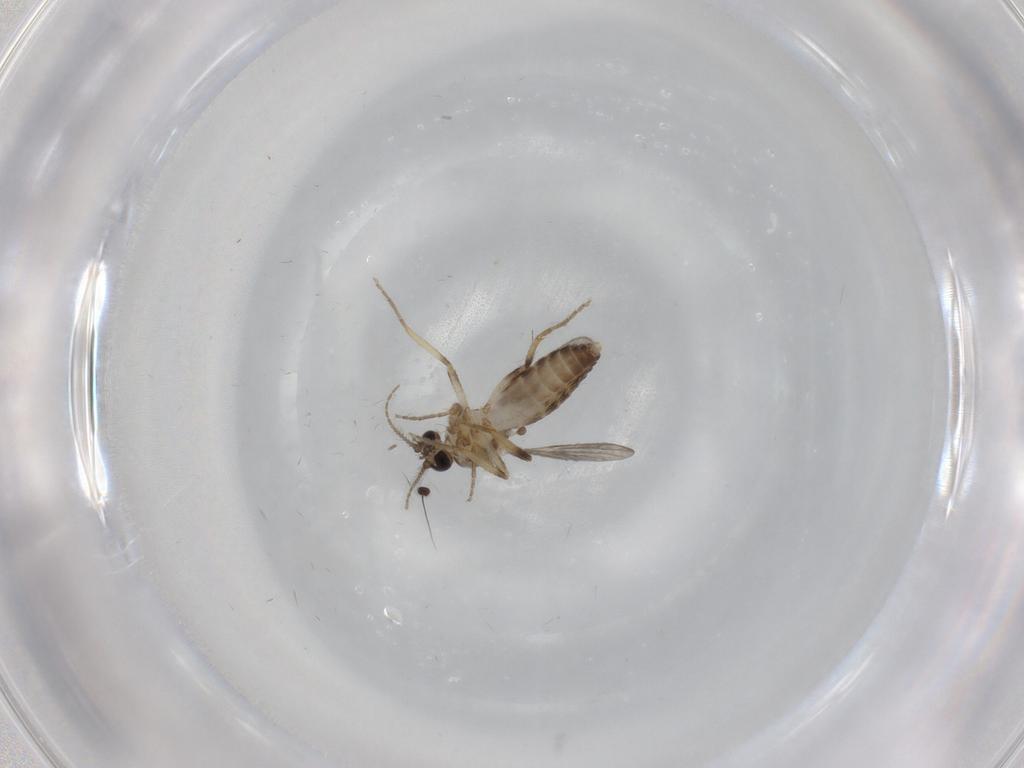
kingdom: Animalia
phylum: Arthropoda
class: Insecta
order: Diptera
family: Ceratopogonidae
